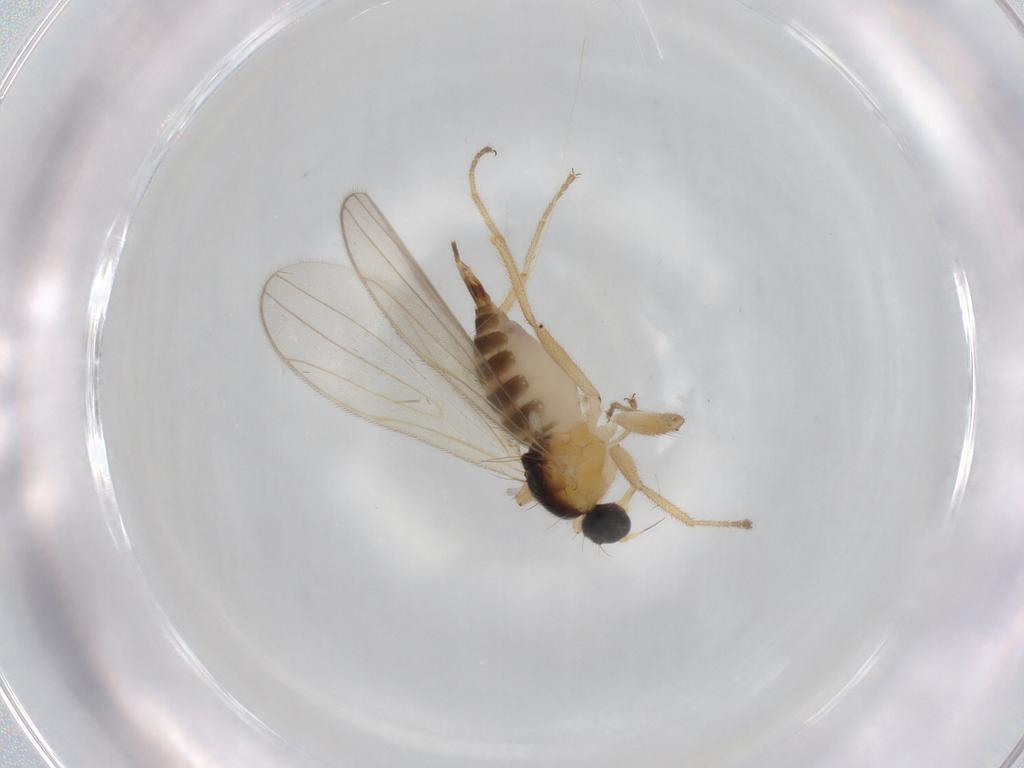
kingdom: Animalia
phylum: Arthropoda
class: Insecta
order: Diptera
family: Hybotidae
